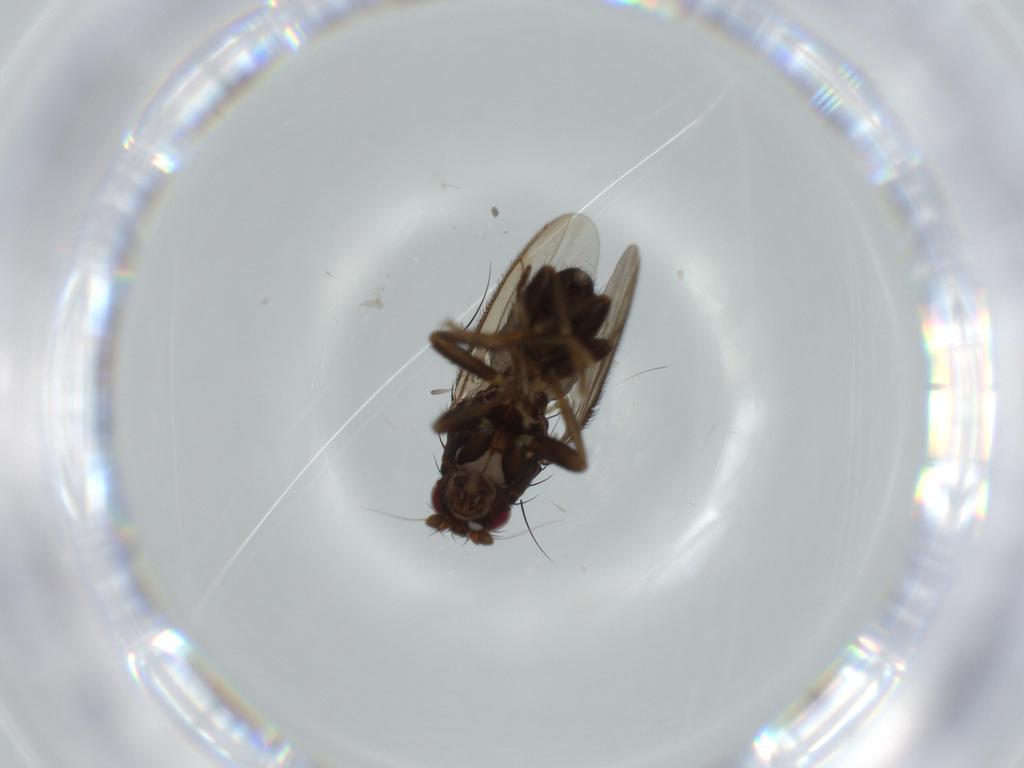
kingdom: Animalia
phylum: Arthropoda
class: Insecta
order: Diptera
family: Sphaeroceridae
